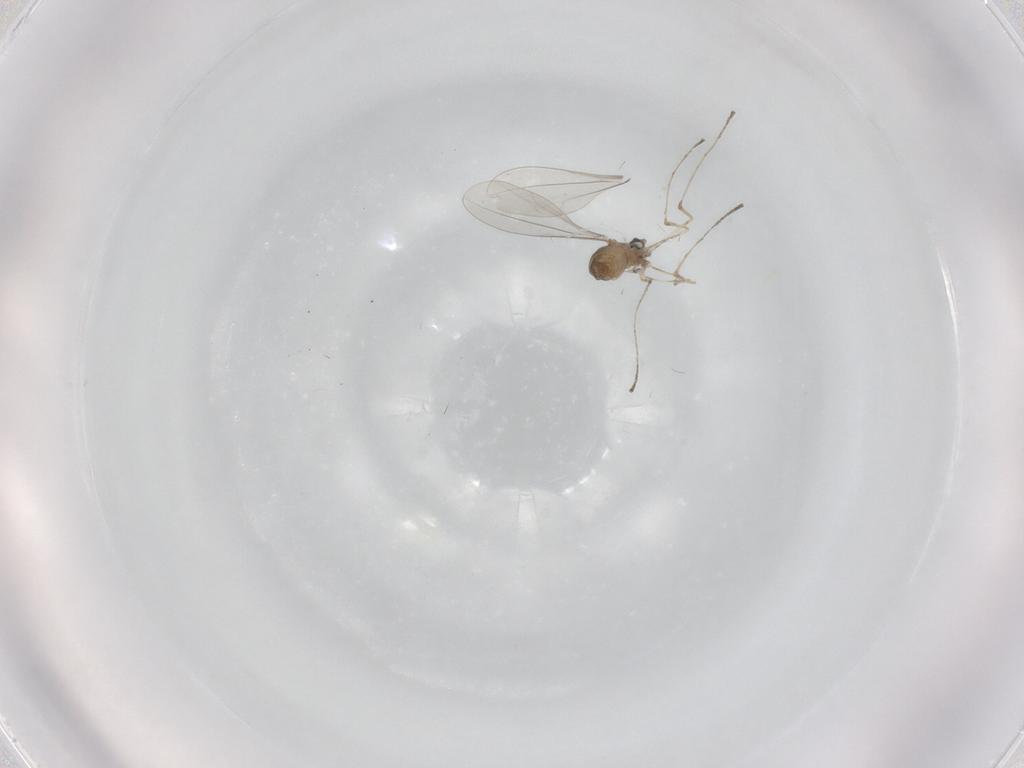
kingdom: Animalia
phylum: Arthropoda
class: Insecta
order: Diptera
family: Cecidomyiidae
